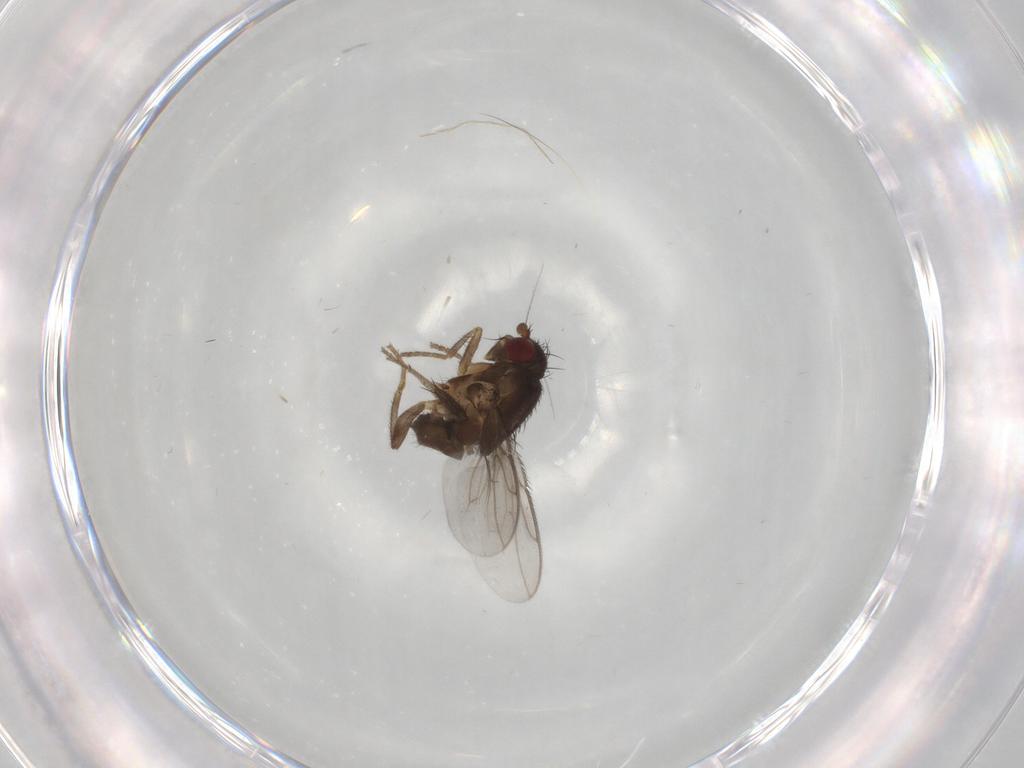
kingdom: Animalia
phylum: Arthropoda
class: Insecta
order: Diptera
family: Sphaeroceridae
